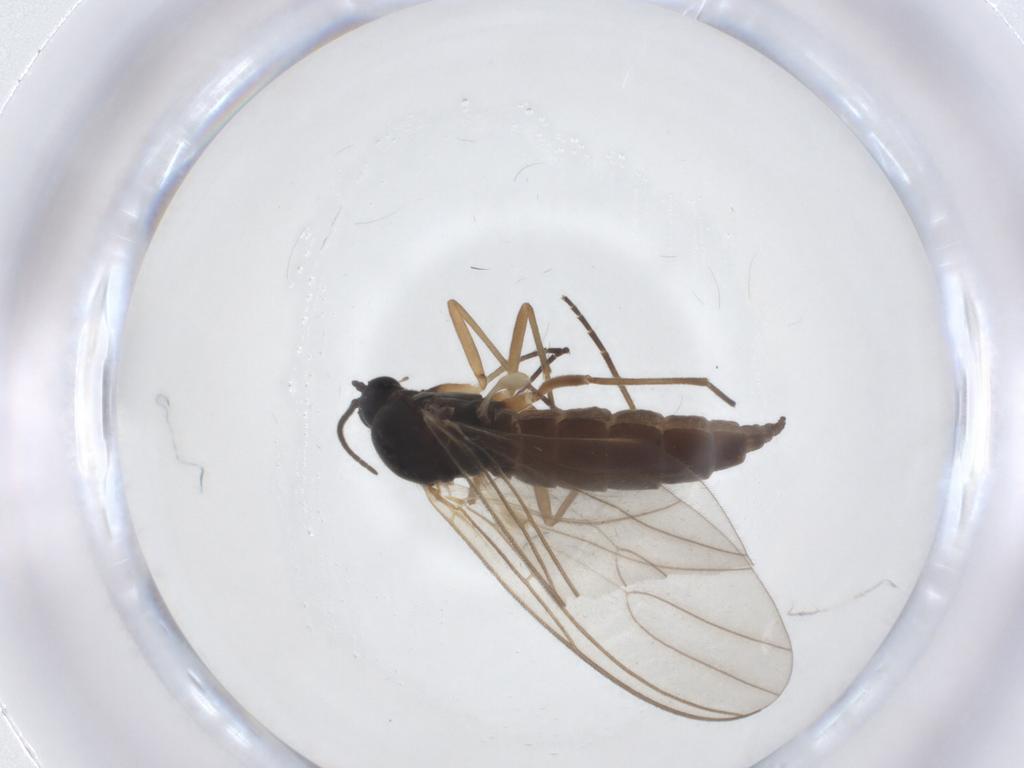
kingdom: Animalia
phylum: Arthropoda
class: Insecta
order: Diptera
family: Sciaridae
